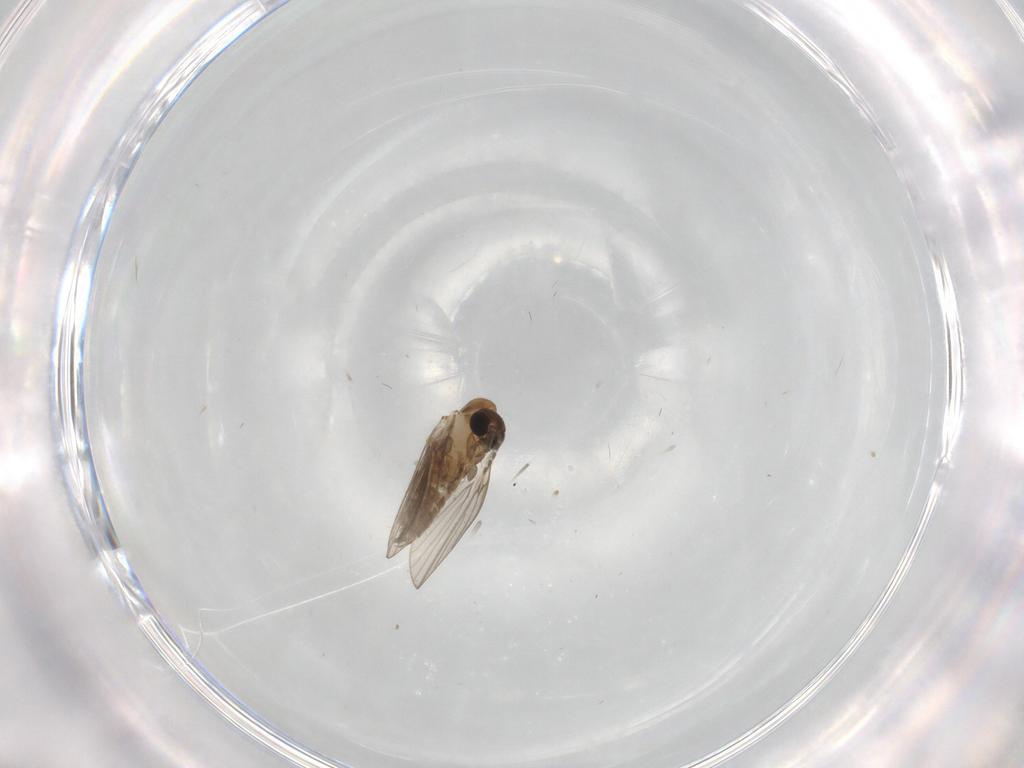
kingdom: Animalia
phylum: Arthropoda
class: Insecta
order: Diptera
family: Psychodidae
